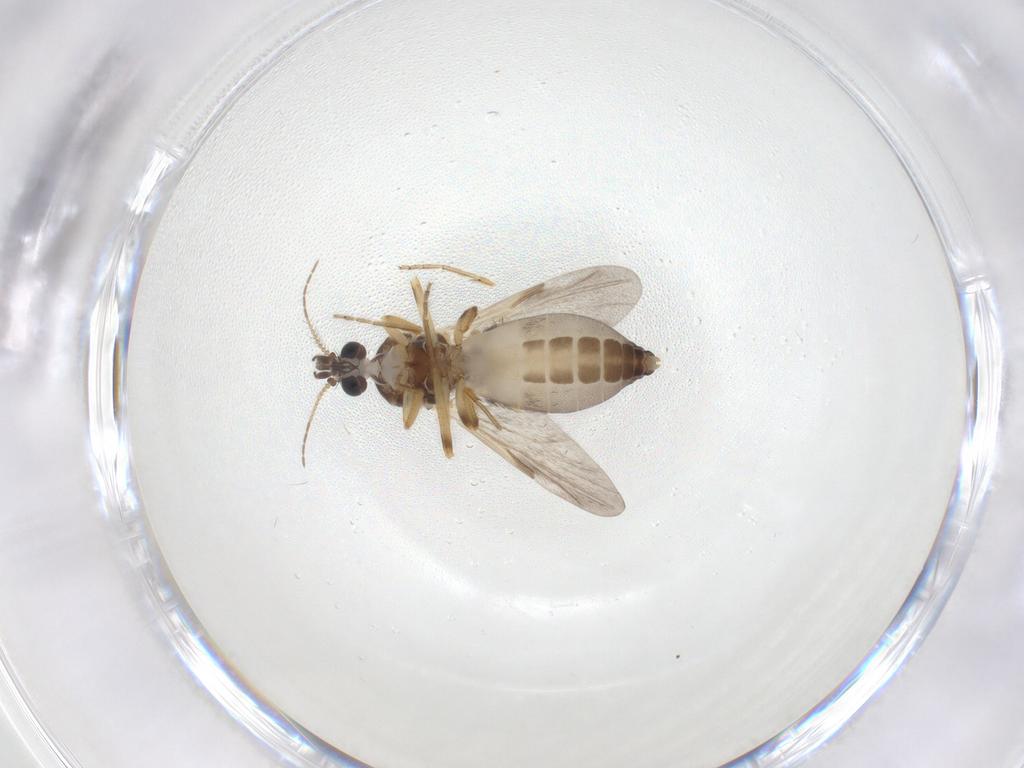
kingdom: Animalia
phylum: Arthropoda
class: Insecta
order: Diptera
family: Ceratopogonidae
